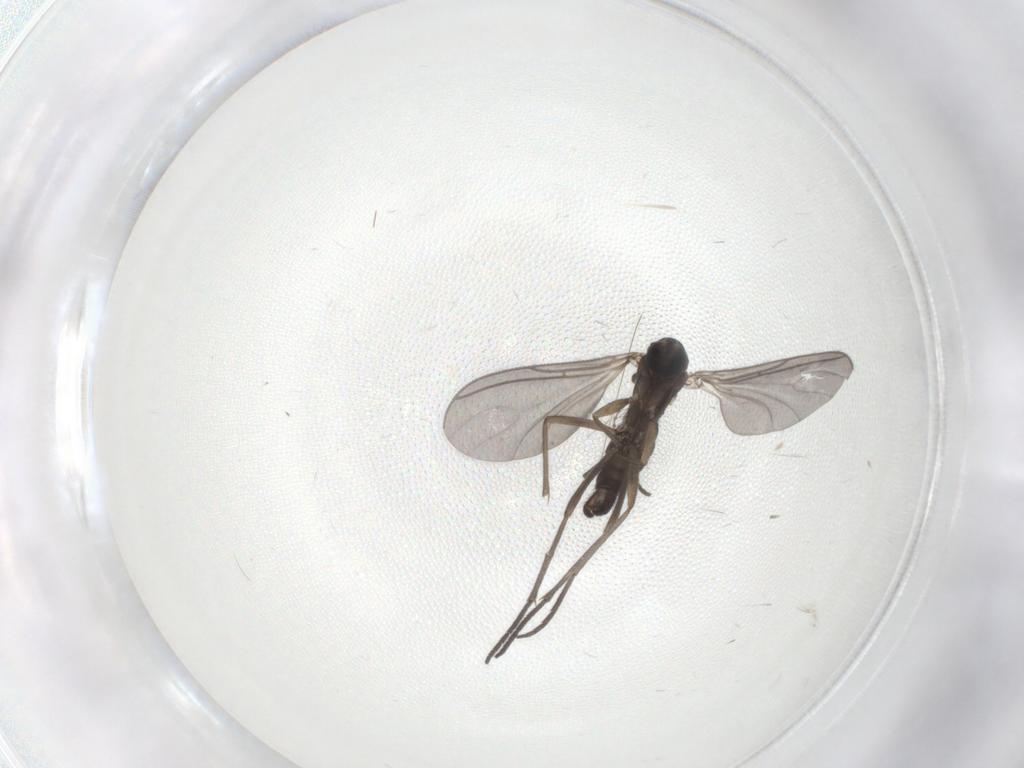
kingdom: Animalia
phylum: Arthropoda
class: Insecta
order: Diptera
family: Sciaridae
